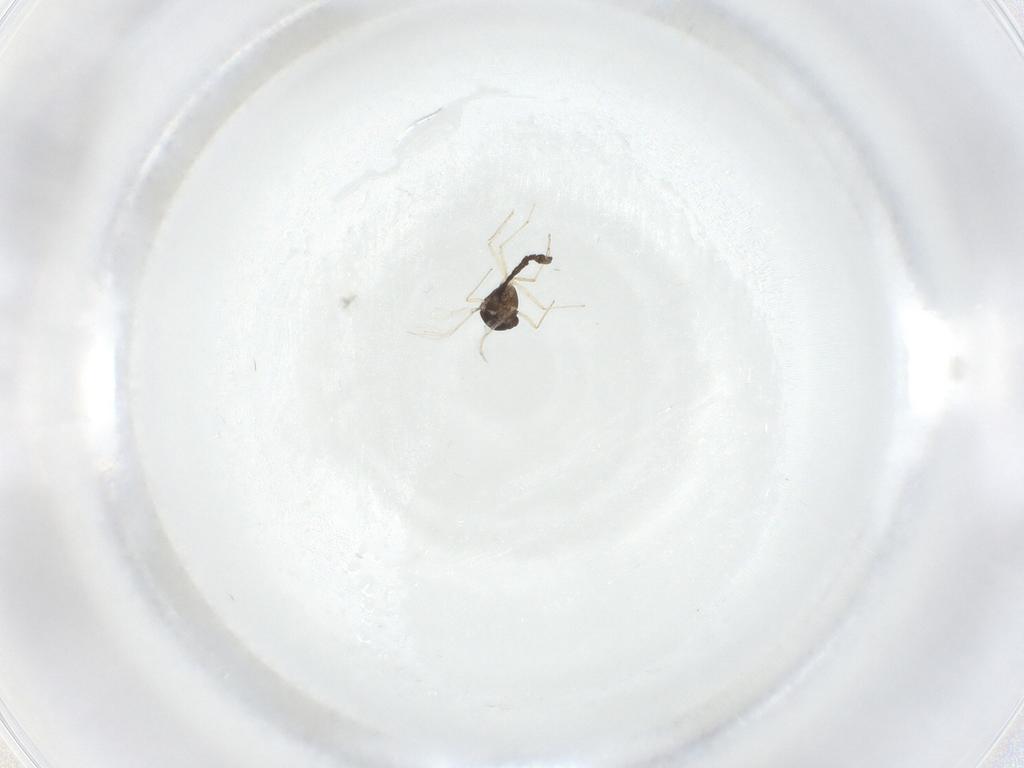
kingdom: Animalia
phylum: Arthropoda
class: Insecta
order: Diptera
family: Chironomidae
